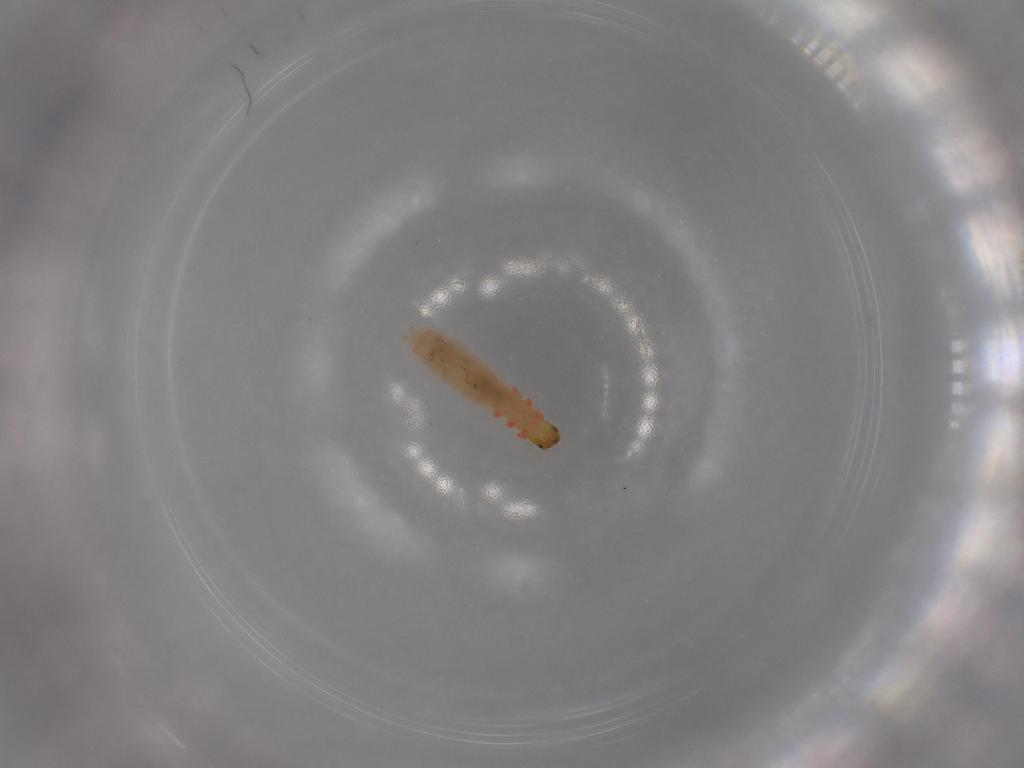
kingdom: Animalia
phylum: Arthropoda
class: Insecta
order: Coleoptera
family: Melyridae
